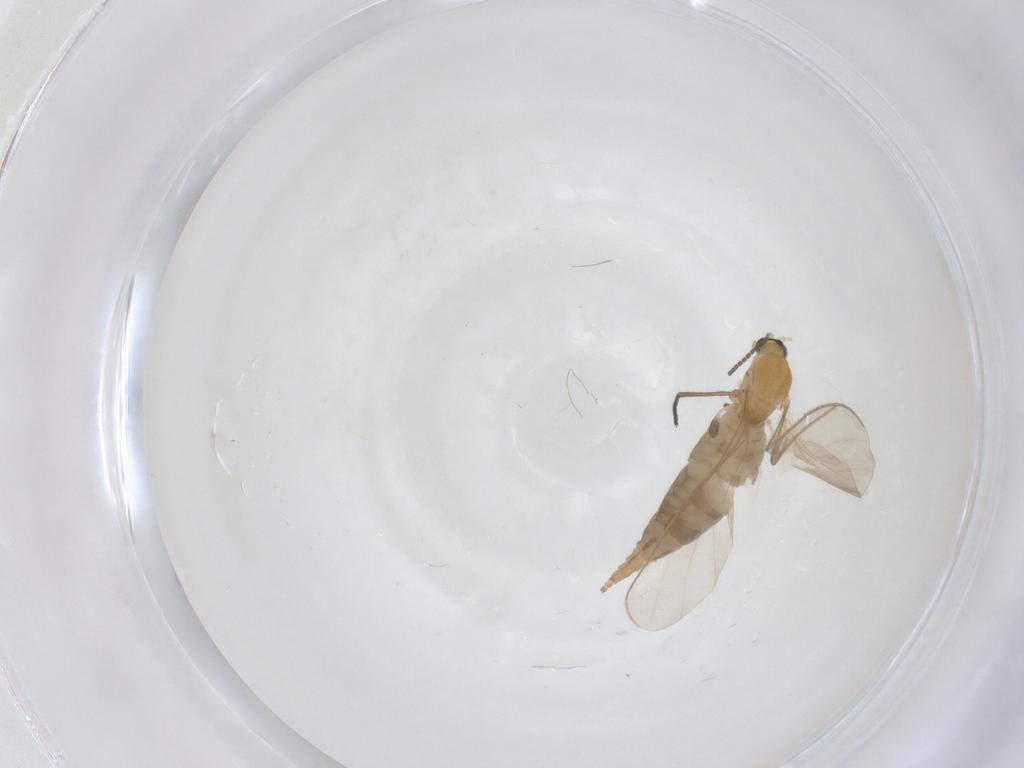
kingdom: Animalia
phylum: Arthropoda
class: Insecta
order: Diptera
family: Sciaridae
